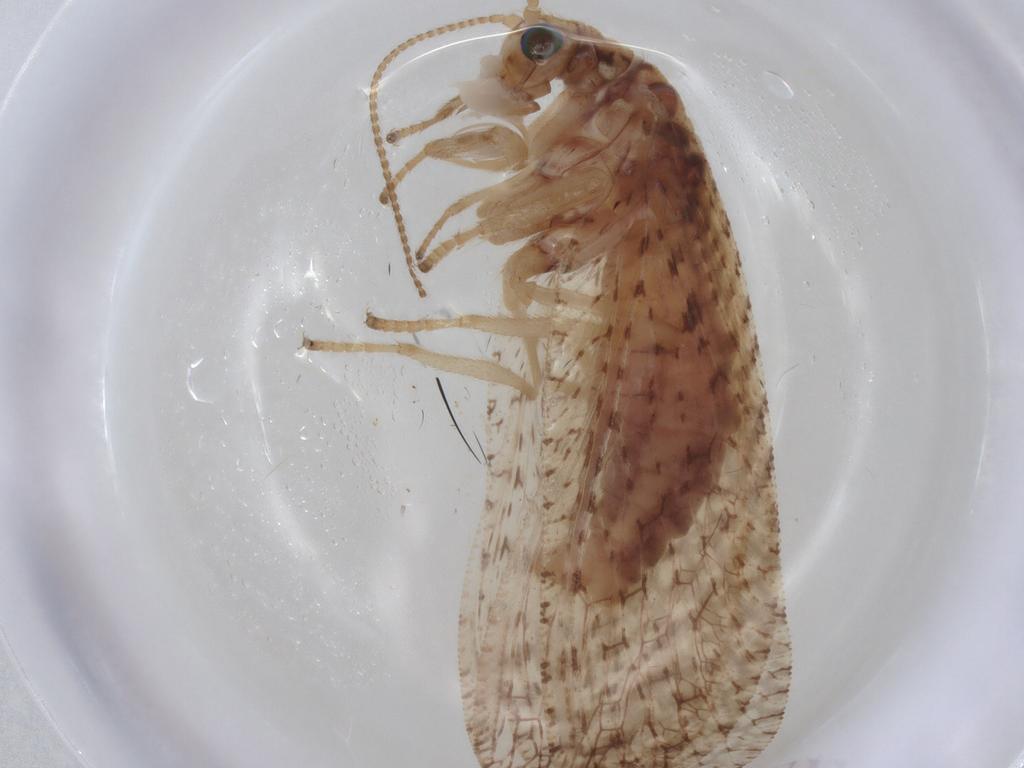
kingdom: Animalia
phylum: Arthropoda
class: Insecta
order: Neuroptera
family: Hemerobiidae
